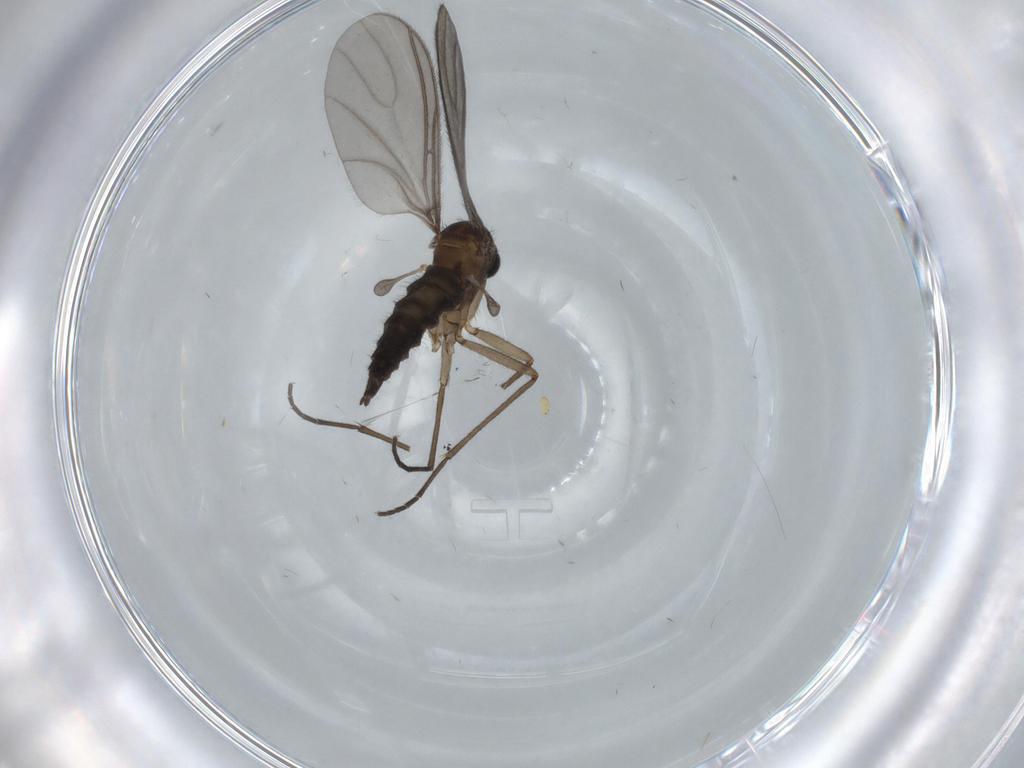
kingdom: Animalia
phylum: Arthropoda
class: Insecta
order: Diptera
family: Sciaridae
